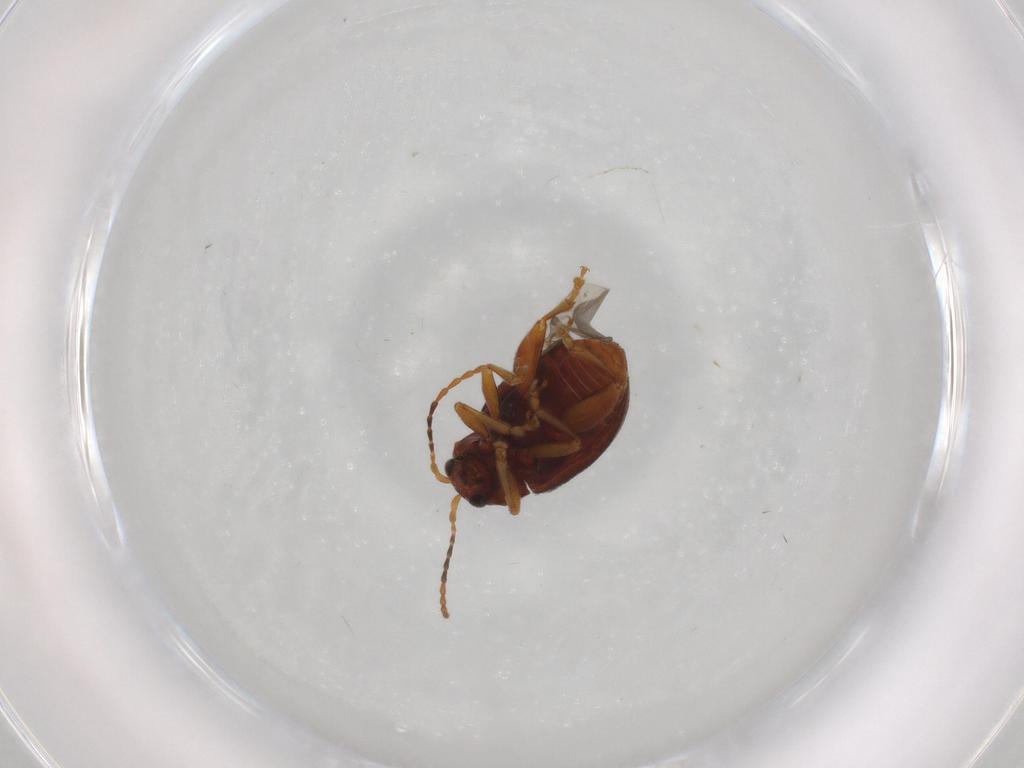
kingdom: Animalia
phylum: Arthropoda
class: Insecta
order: Coleoptera
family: Chrysomelidae
